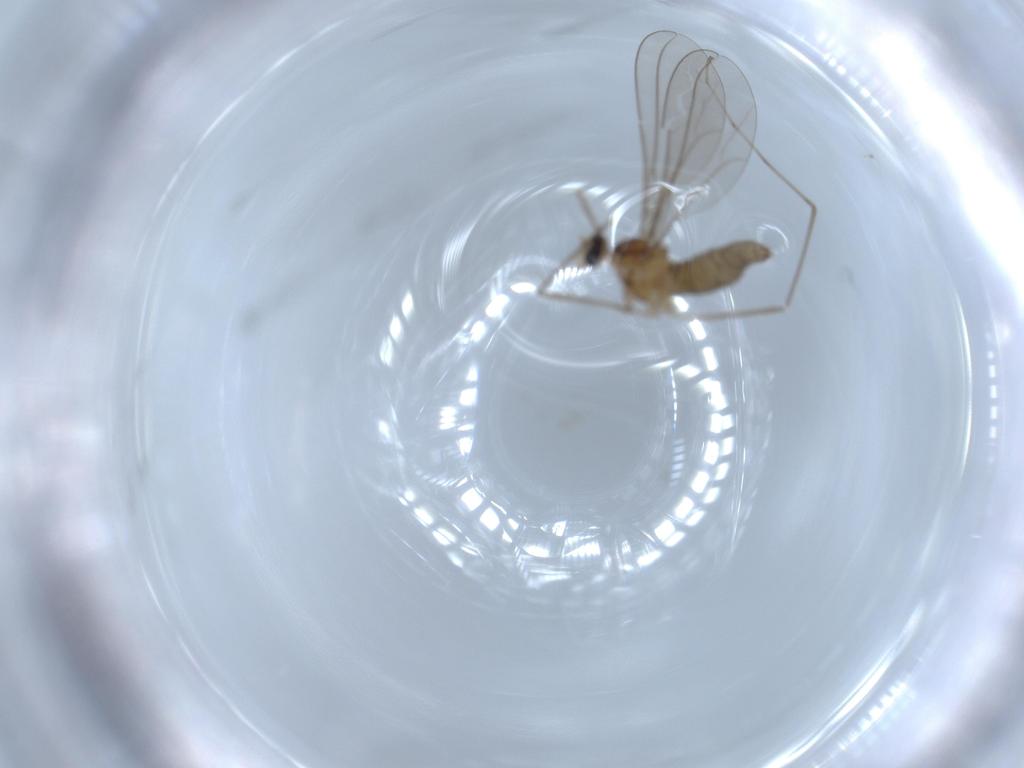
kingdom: Animalia
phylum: Arthropoda
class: Insecta
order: Diptera
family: Cecidomyiidae
